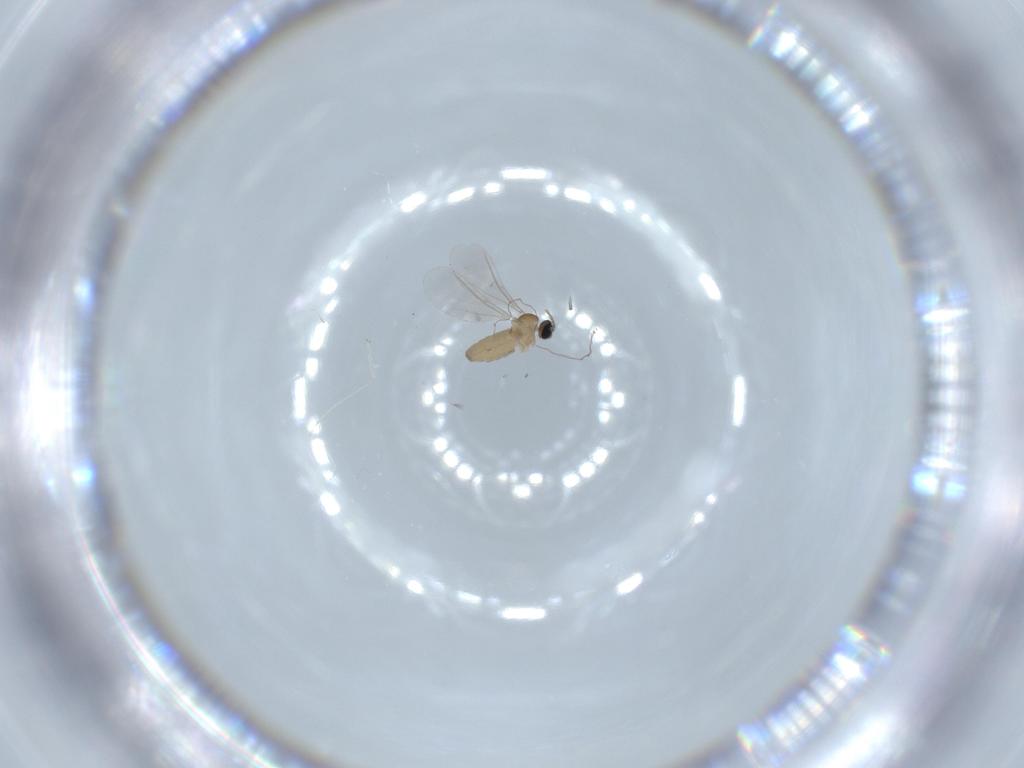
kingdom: Animalia
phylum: Arthropoda
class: Insecta
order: Diptera
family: Cecidomyiidae
